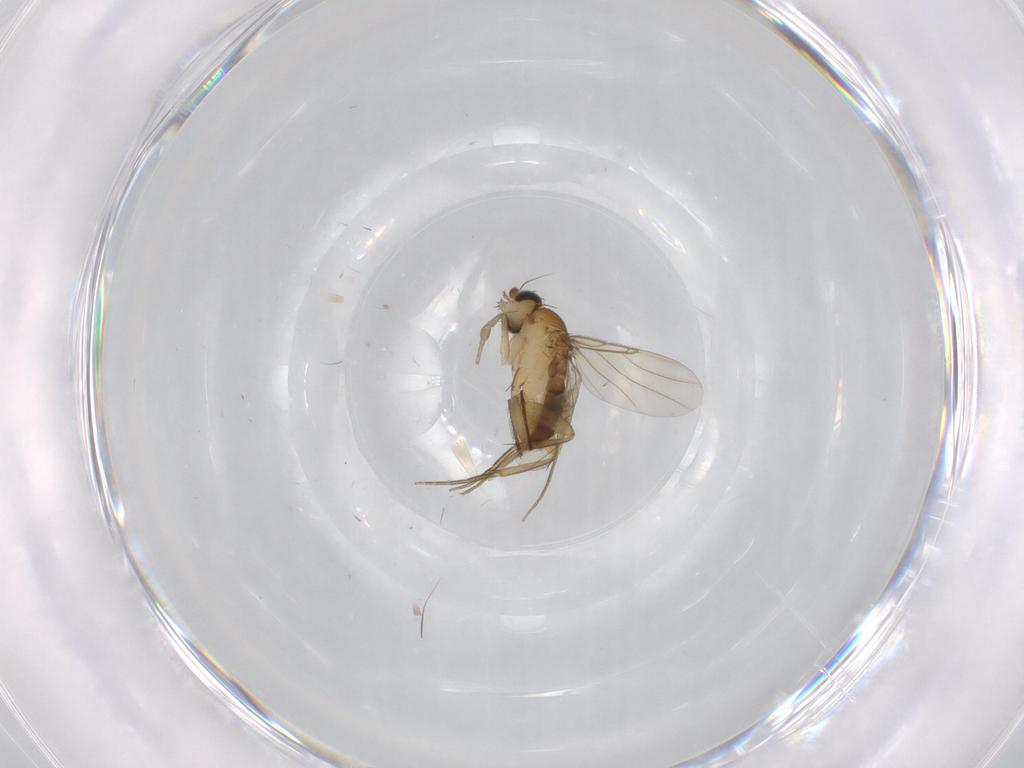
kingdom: Animalia
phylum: Arthropoda
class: Insecta
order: Diptera
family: Phoridae
